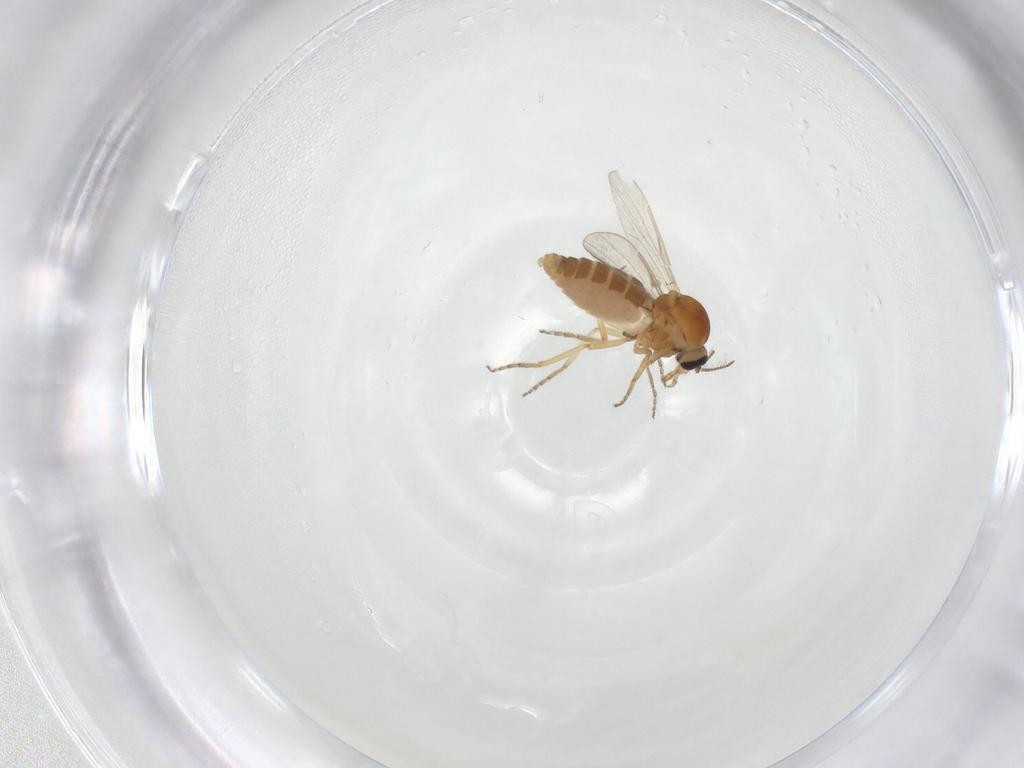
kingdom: Animalia
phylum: Arthropoda
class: Insecta
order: Diptera
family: Ceratopogonidae
